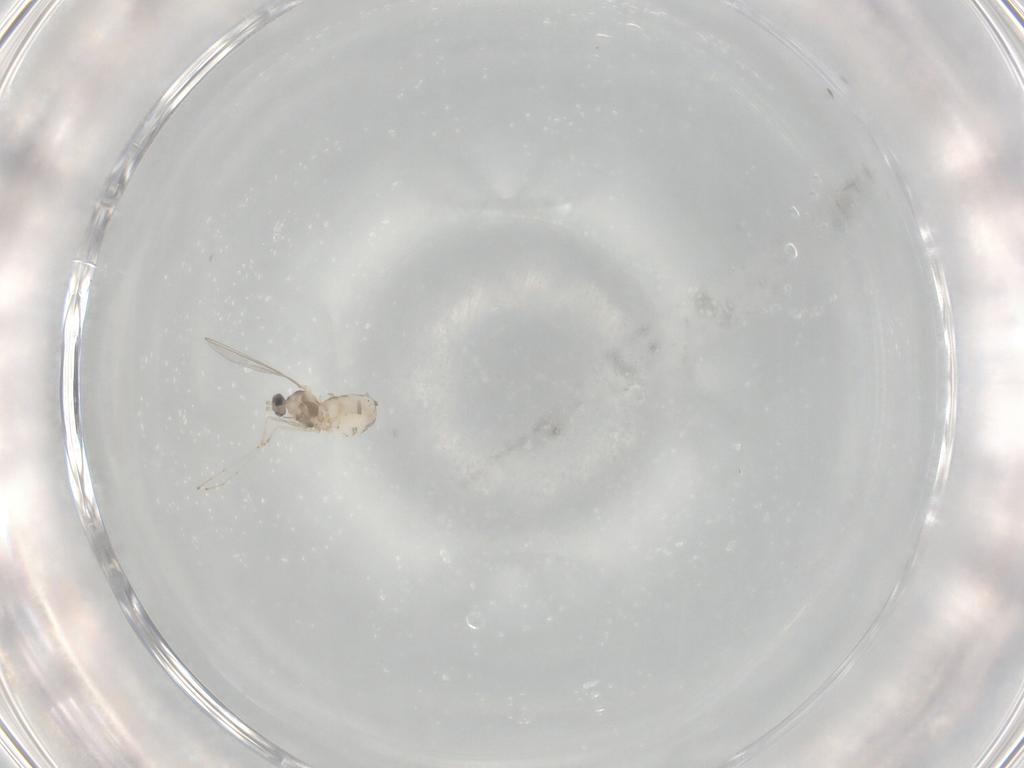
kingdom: Animalia
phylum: Arthropoda
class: Insecta
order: Diptera
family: Cecidomyiidae
